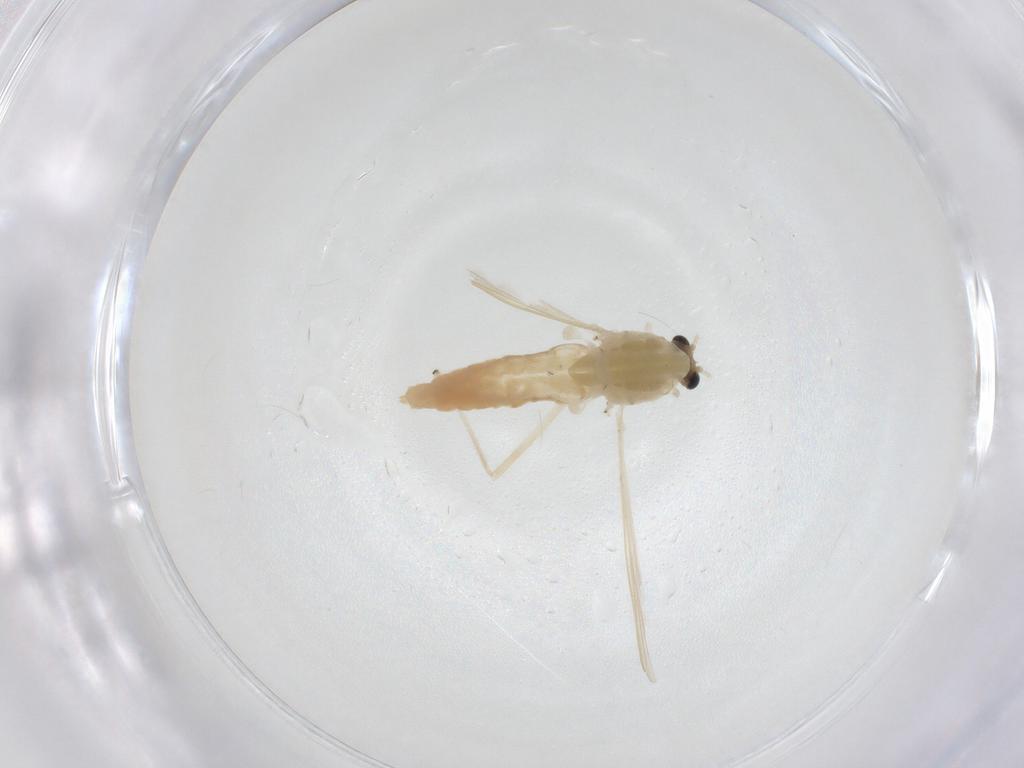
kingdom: Animalia
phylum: Arthropoda
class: Insecta
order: Diptera
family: Chironomidae
